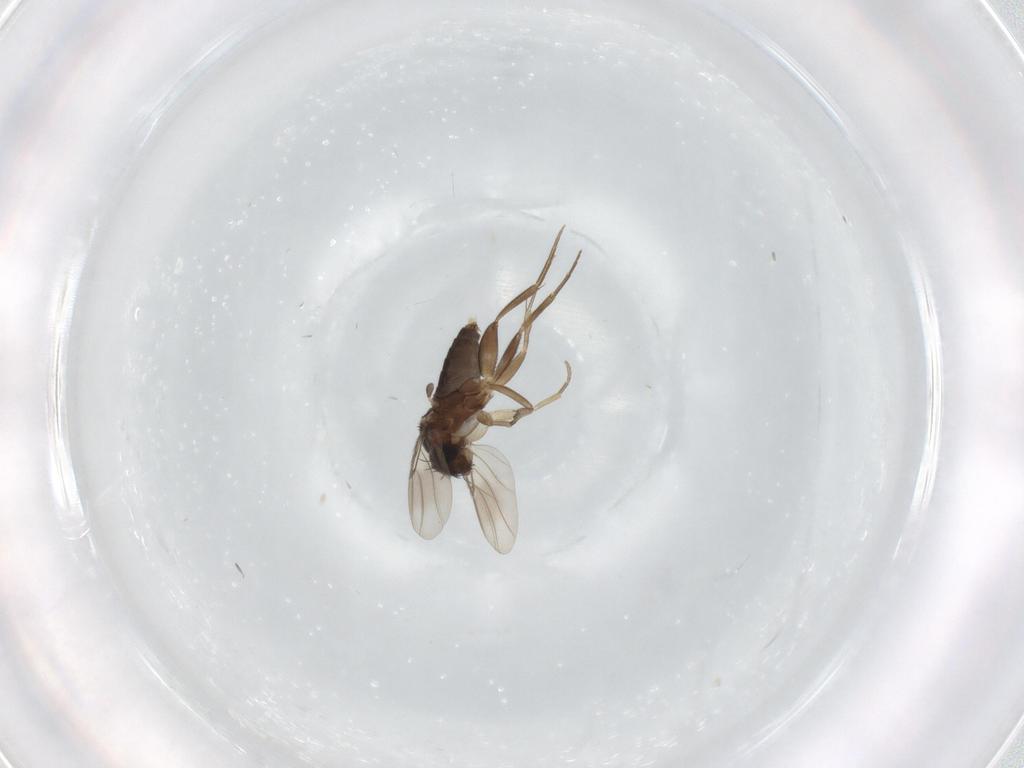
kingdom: Animalia
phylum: Arthropoda
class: Insecta
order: Diptera
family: Phoridae
